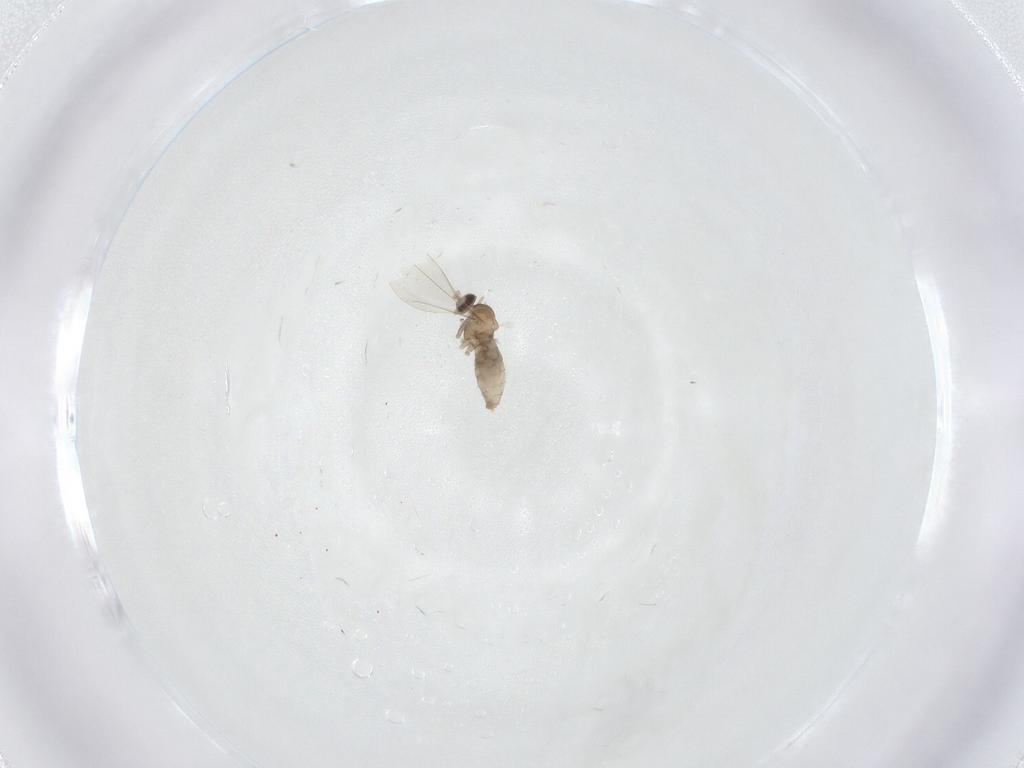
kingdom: Animalia
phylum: Arthropoda
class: Insecta
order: Diptera
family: Cecidomyiidae
